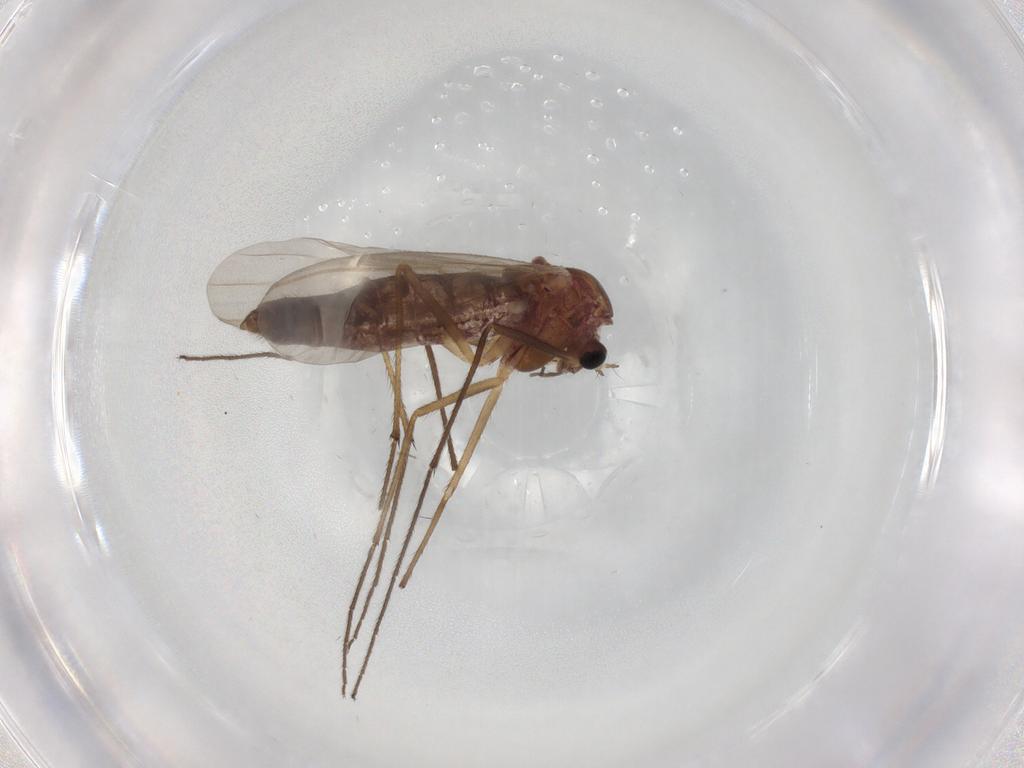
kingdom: Animalia
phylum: Arthropoda
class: Insecta
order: Diptera
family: Chironomidae
